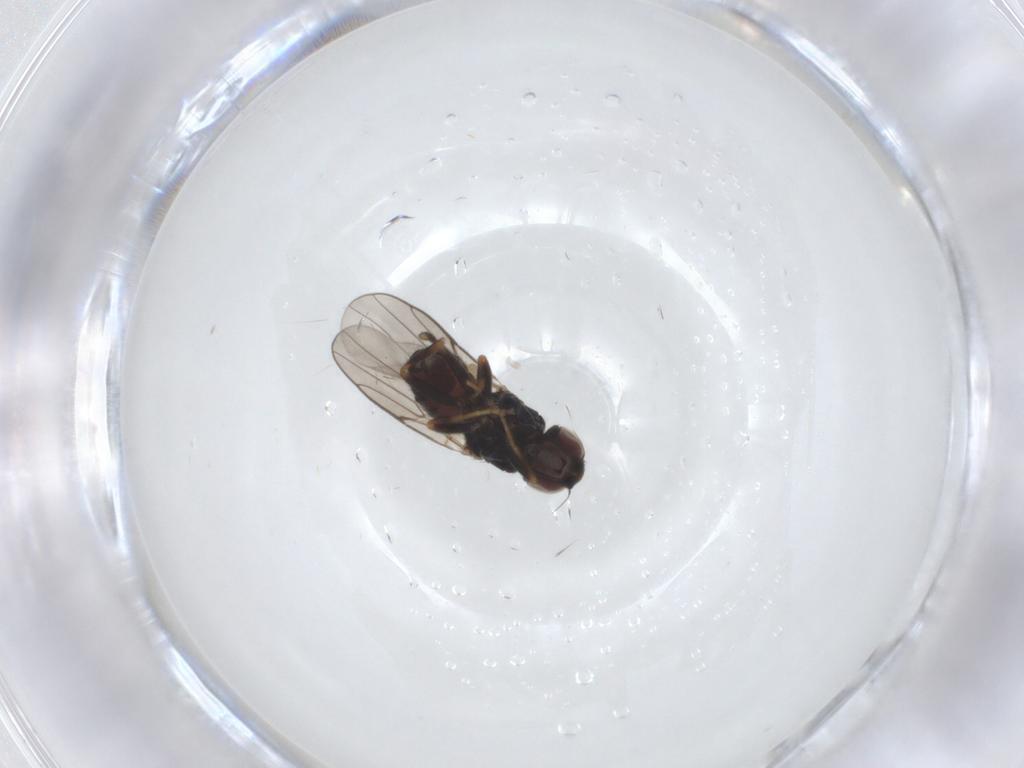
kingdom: Animalia
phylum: Arthropoda
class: Insecta
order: Diptera
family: Chloropidae
